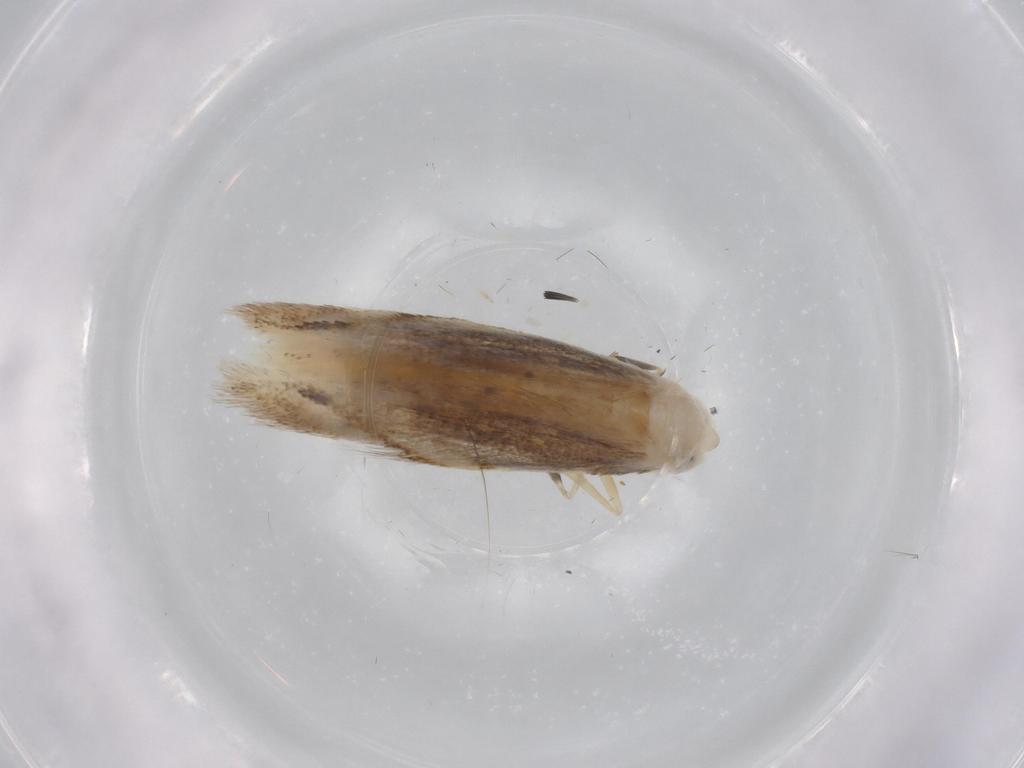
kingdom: Animalia
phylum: Arthropoda
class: Insecta
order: Lepidoptera
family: Bucculatricidae
